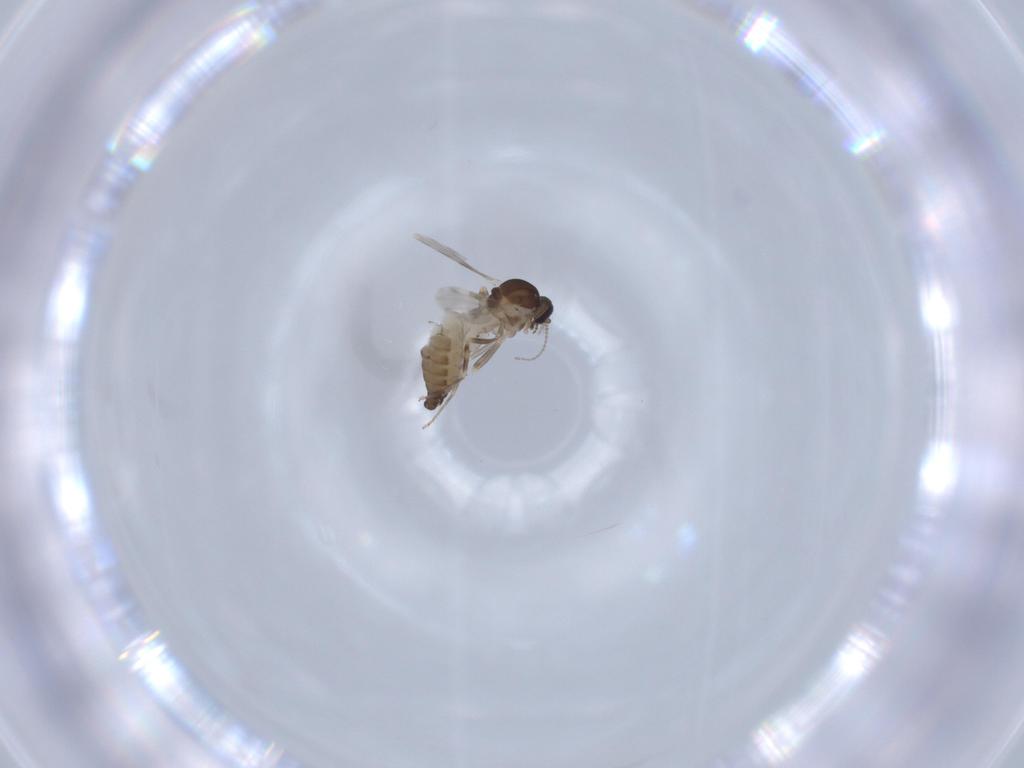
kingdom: Animalia
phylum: Arthropoda
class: Insecta
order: Diptera
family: Ceratopogonidae
